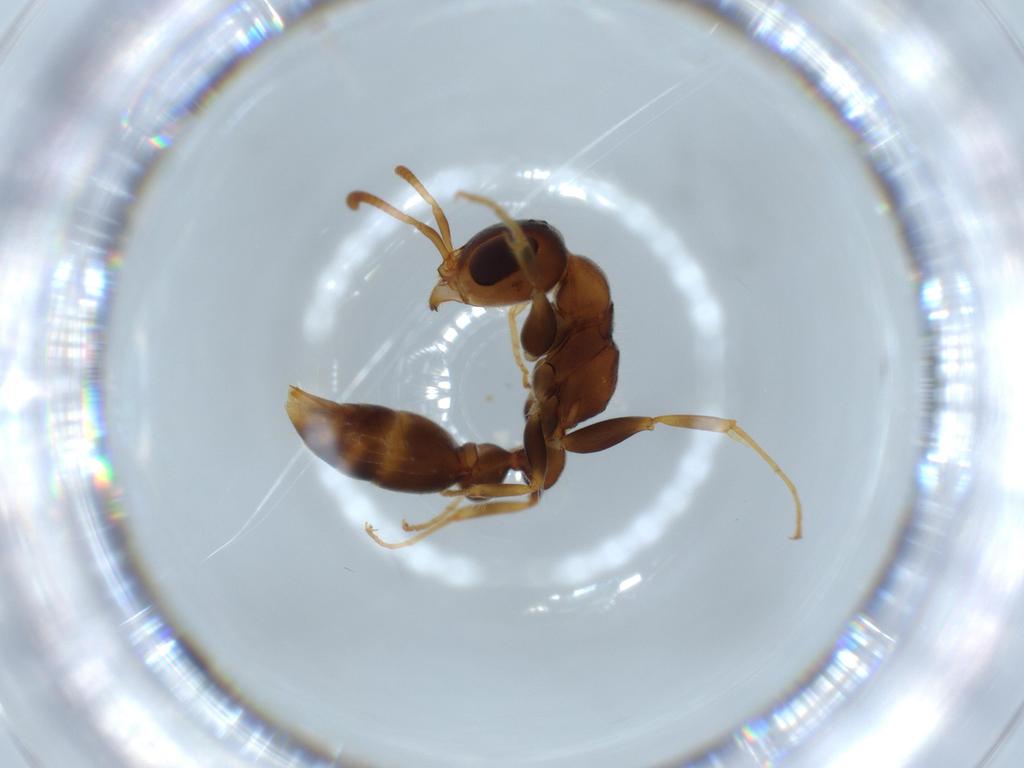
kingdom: Animalia
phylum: Arthropoda
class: Insecta
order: Hymenoptera
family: Formicidae
